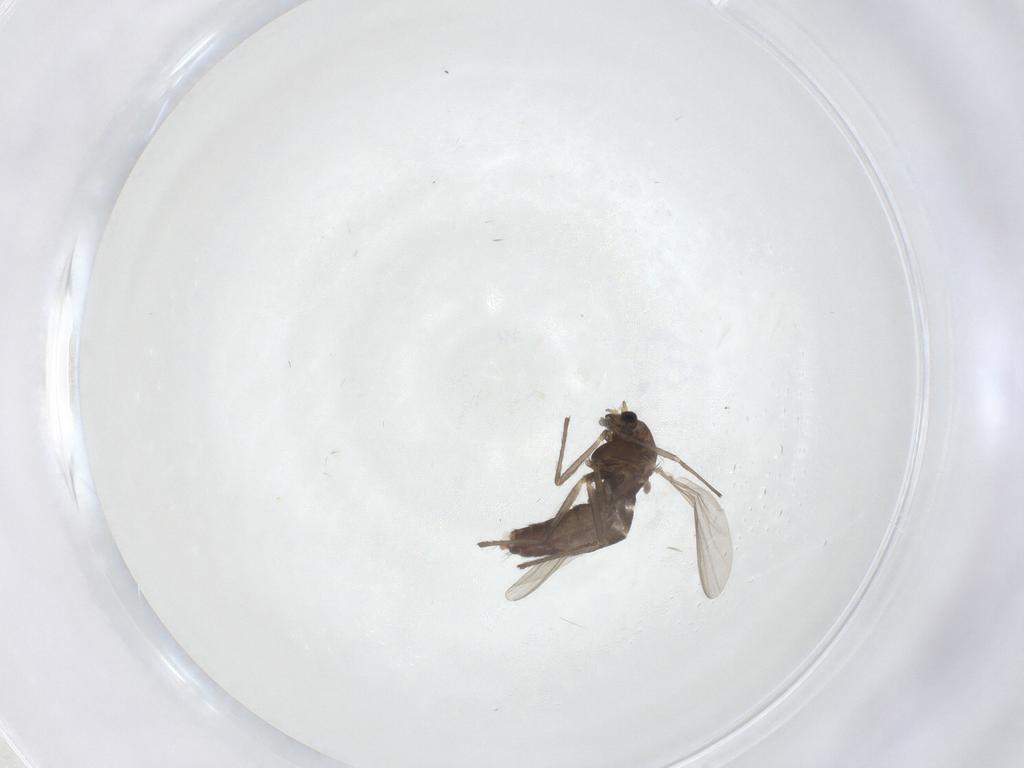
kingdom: Animalia
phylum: Arthropoda
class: Insecta
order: Diptera
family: Chironomidae
